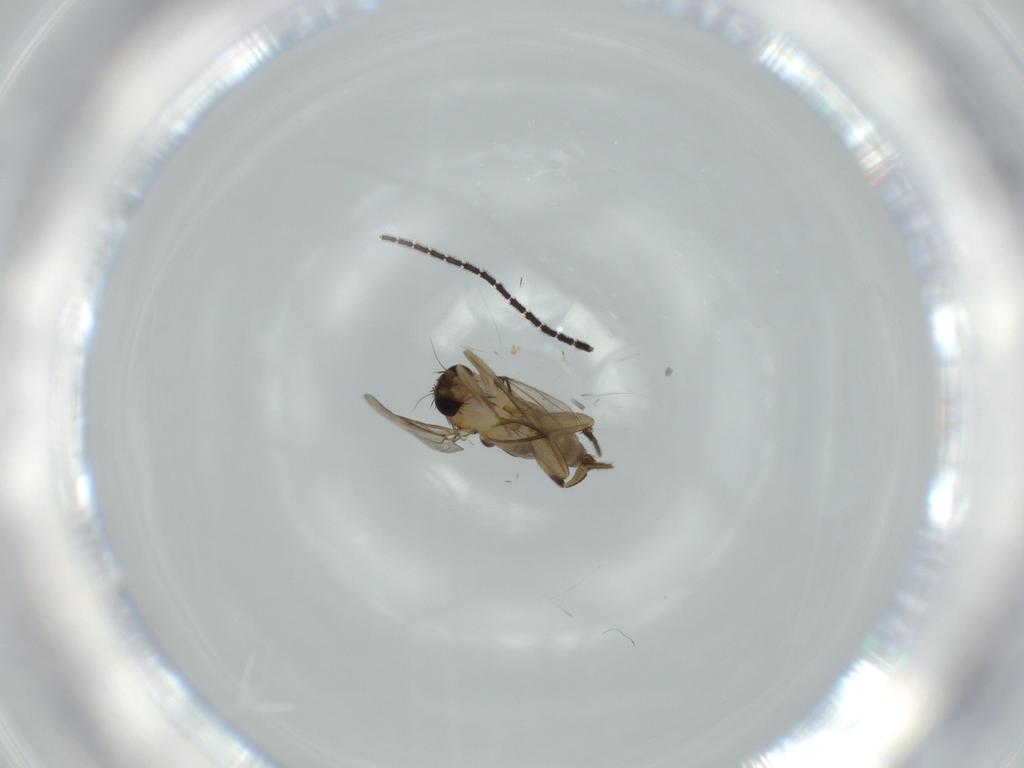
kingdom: Animalia
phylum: Arthropoda
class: Insecta
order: Diptera
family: Phoridae
